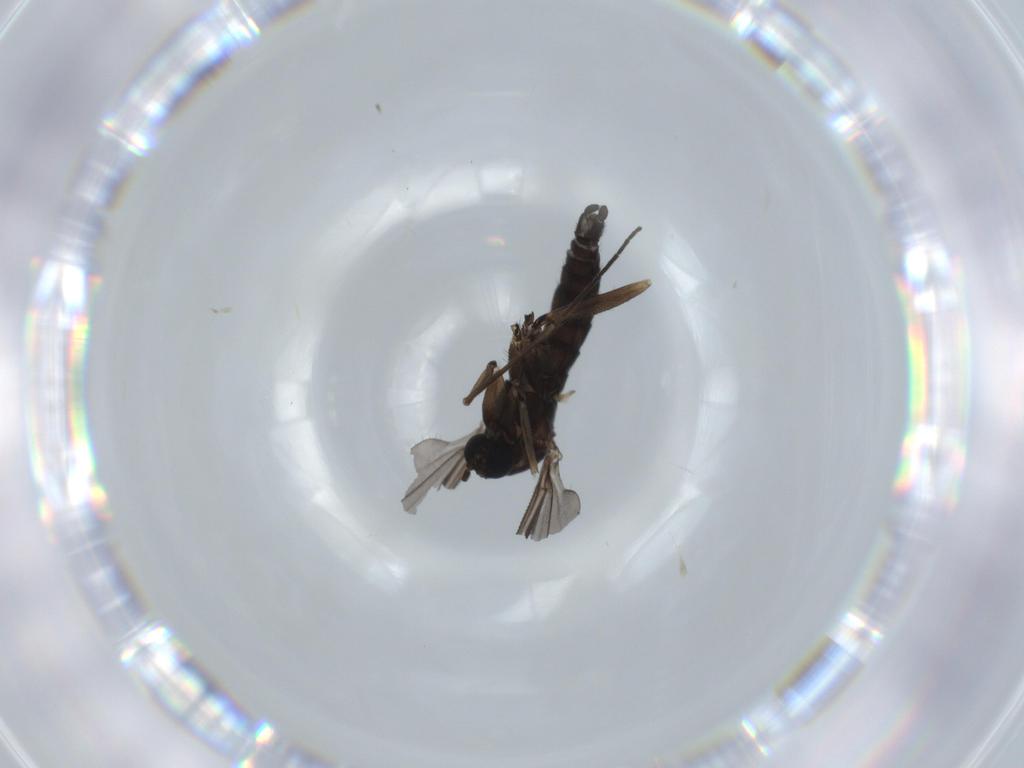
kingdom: Animalia
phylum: Arthropoda
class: Insecta
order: Diptera
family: Sciaridae
